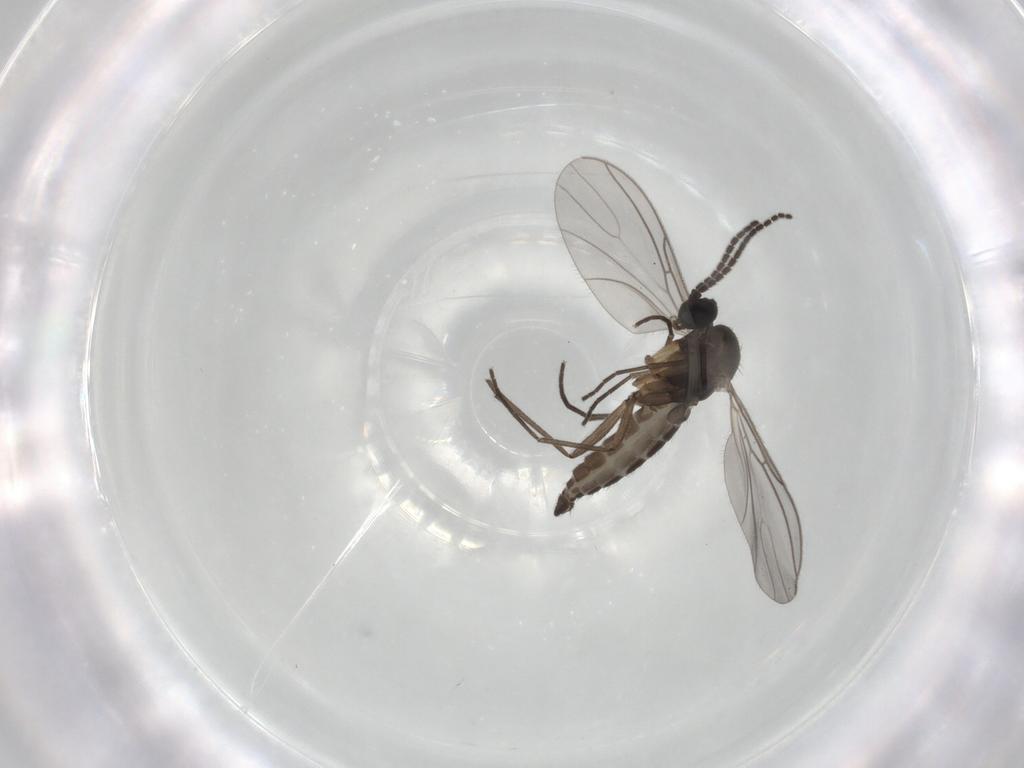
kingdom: Animalia
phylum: Arthropoda
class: Insecta
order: Diptera
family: Sciaridae
